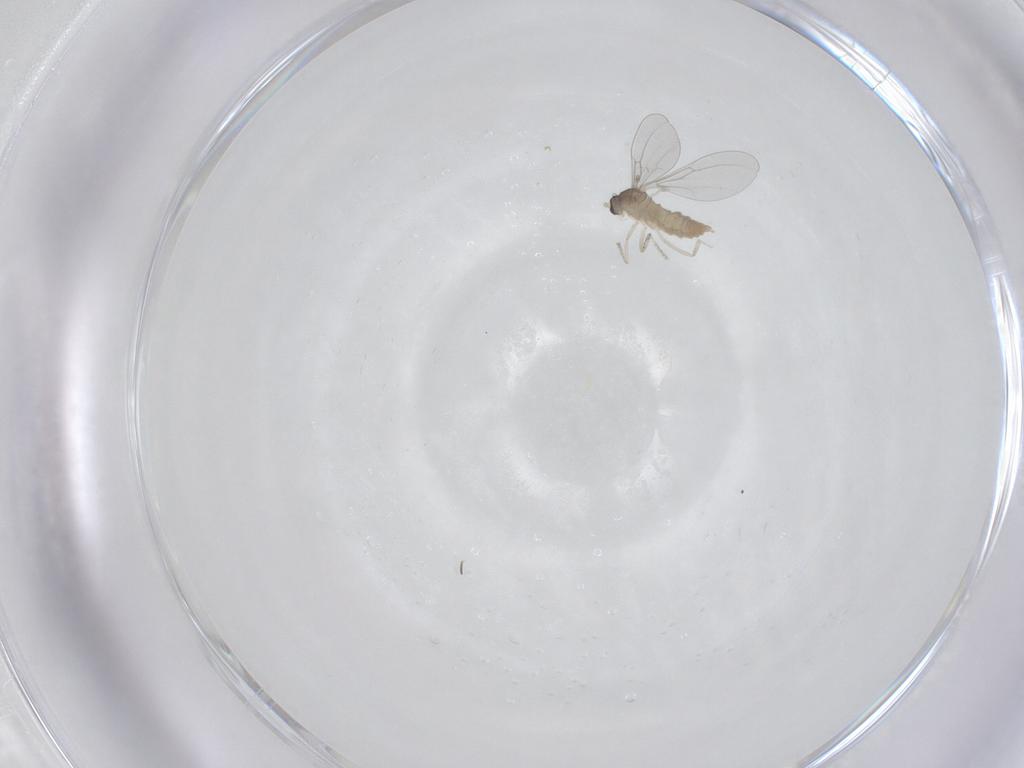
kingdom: Animalia
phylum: Arthropoda
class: Insecta
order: Diptera
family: Cecidomyiidae
